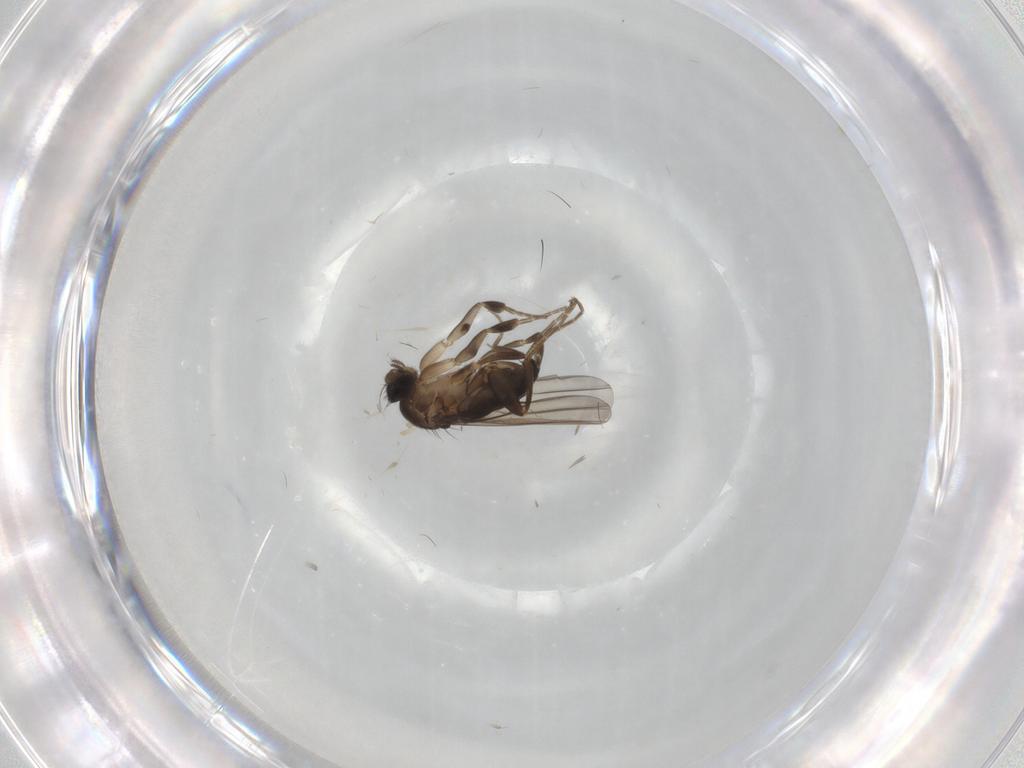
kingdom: Animalia
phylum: Arthropoda
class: Insecta
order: Diptera
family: Phoridae
